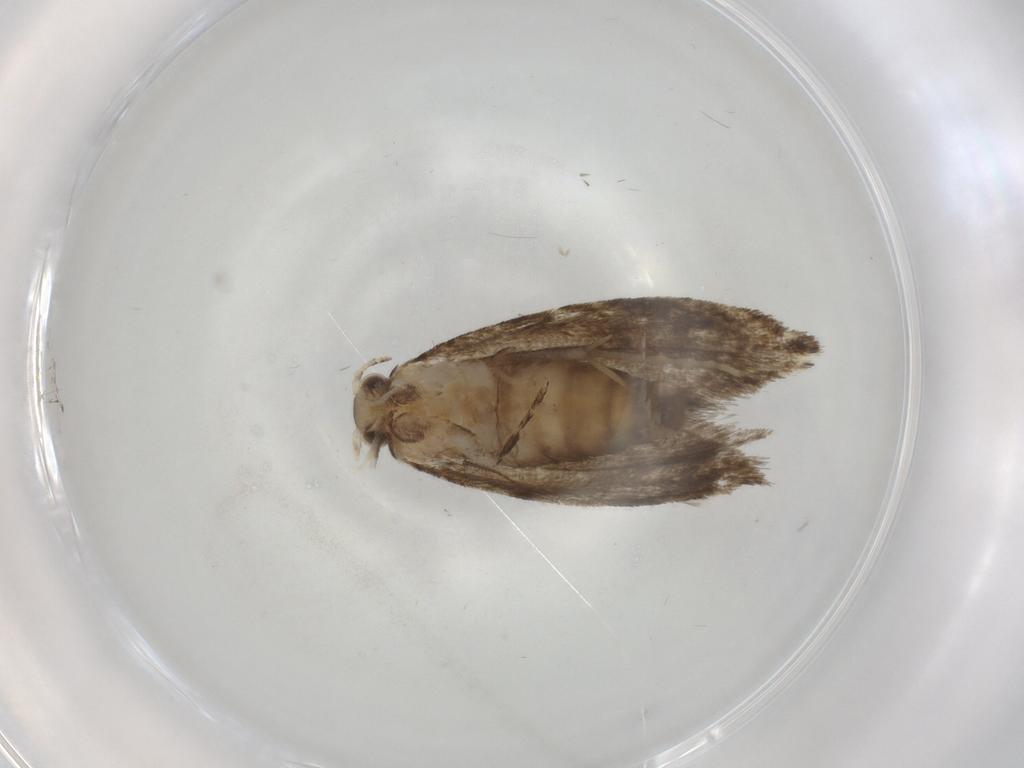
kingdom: Animalia
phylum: Arthropoda
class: Insecta
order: Lepidoptera
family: Tineidae
